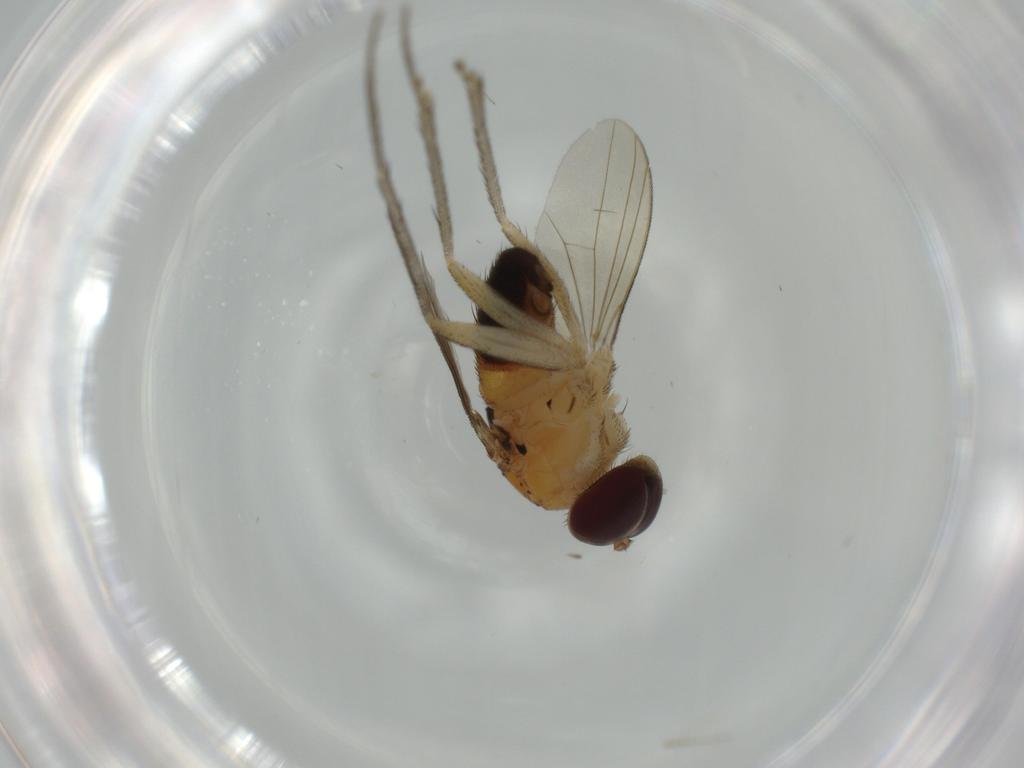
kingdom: Animalia
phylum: Arthropoda
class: Insecta
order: Diptera
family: Dolichopodidae
